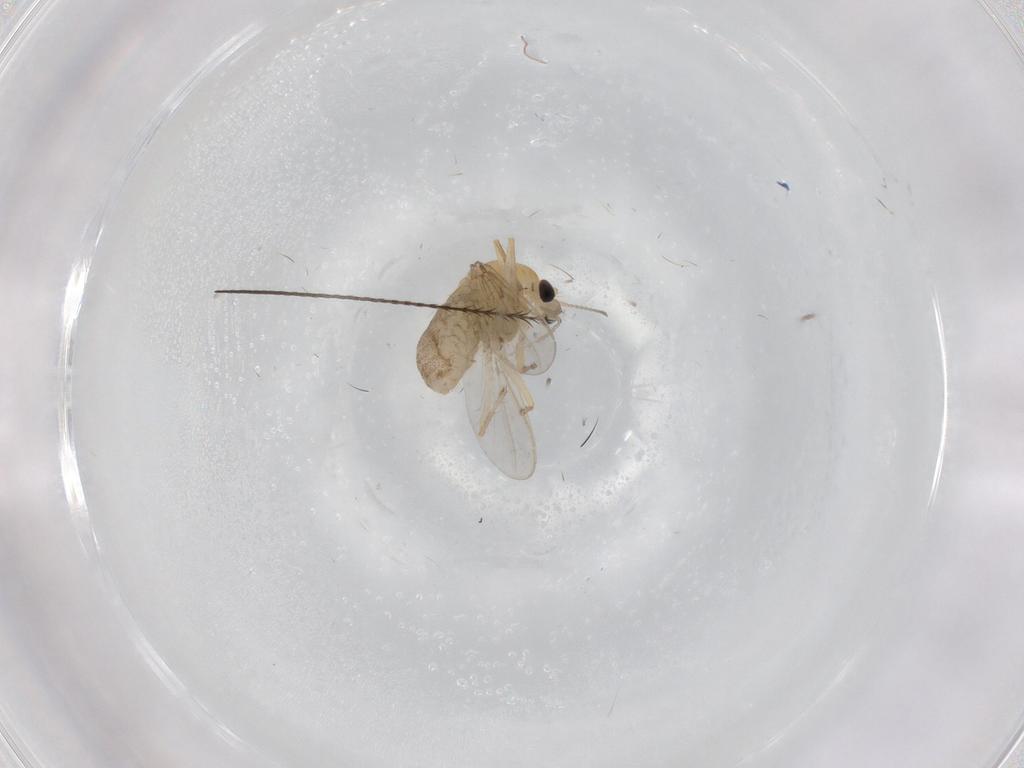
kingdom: Animalia
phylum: Arthropoda
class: Insecta
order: Diptera
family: Chironomidae
